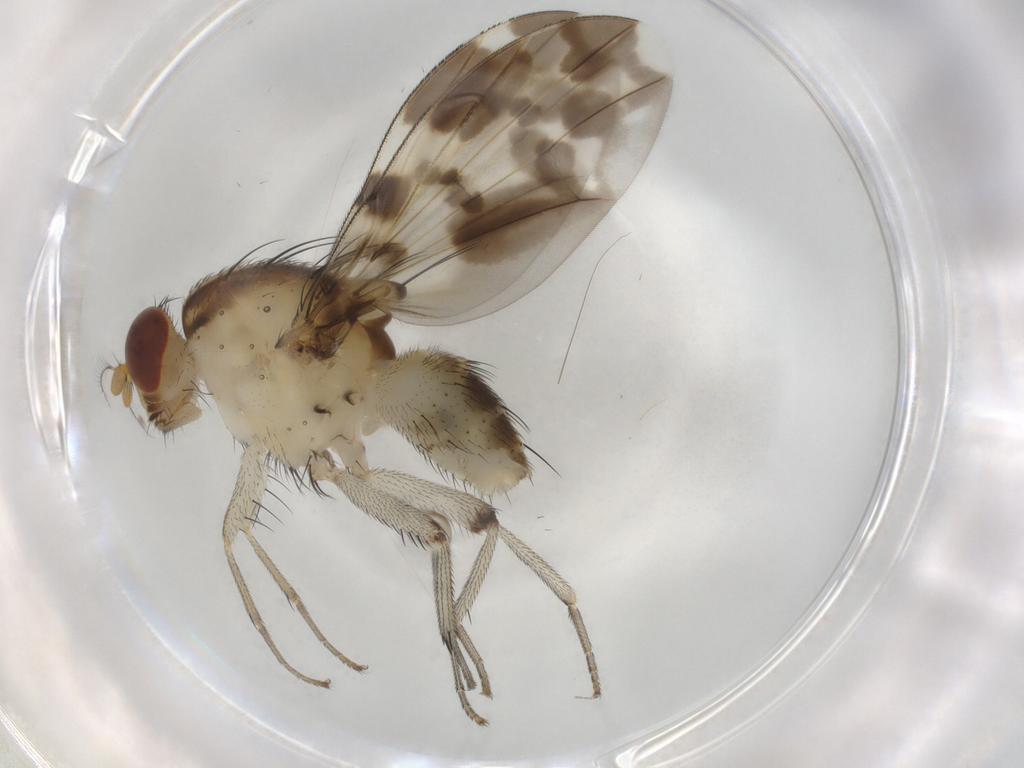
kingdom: Animalia
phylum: Arthropoda
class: Insecta
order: Diptera
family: Cecidomyiidae
